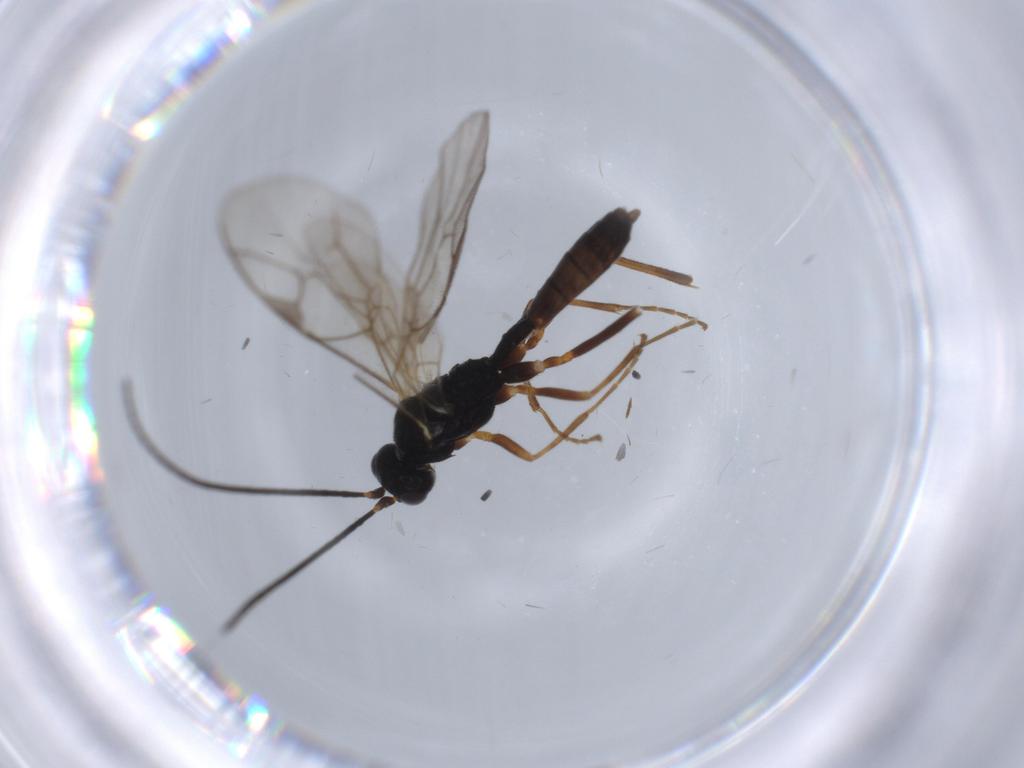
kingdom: Animalia
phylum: Arthropoda
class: Insecta
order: Hymenoptera
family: Ichneumonidae
